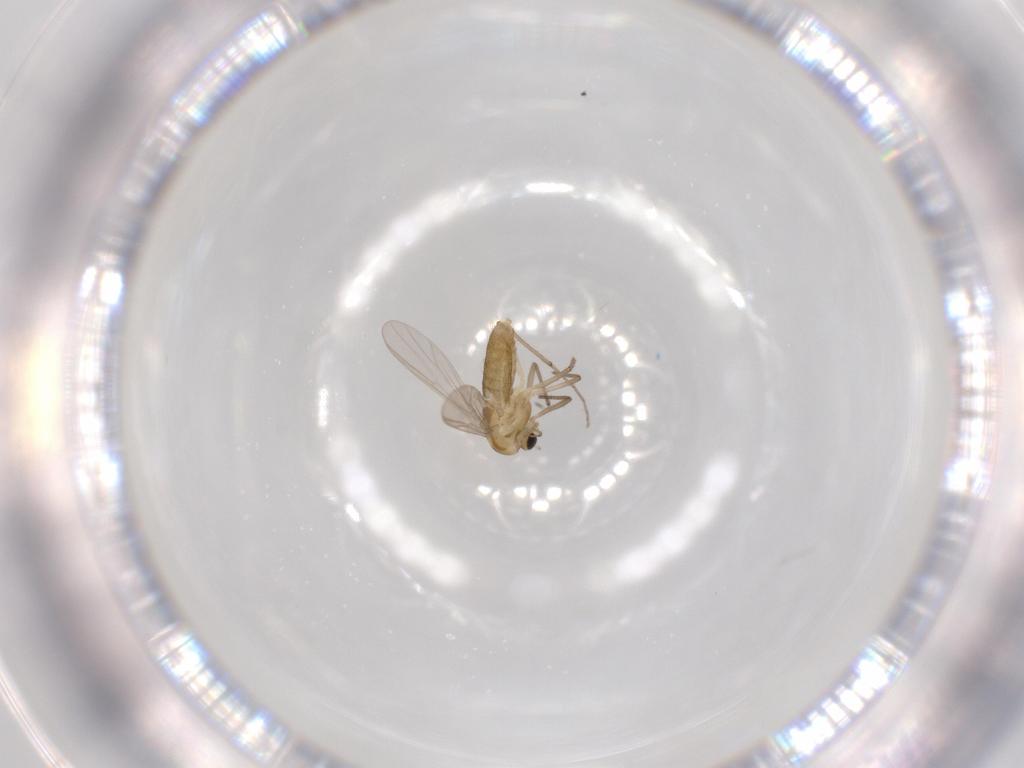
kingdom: Animalia
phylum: Arthropoda
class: Insecta
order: Diptera
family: Chironomidae
